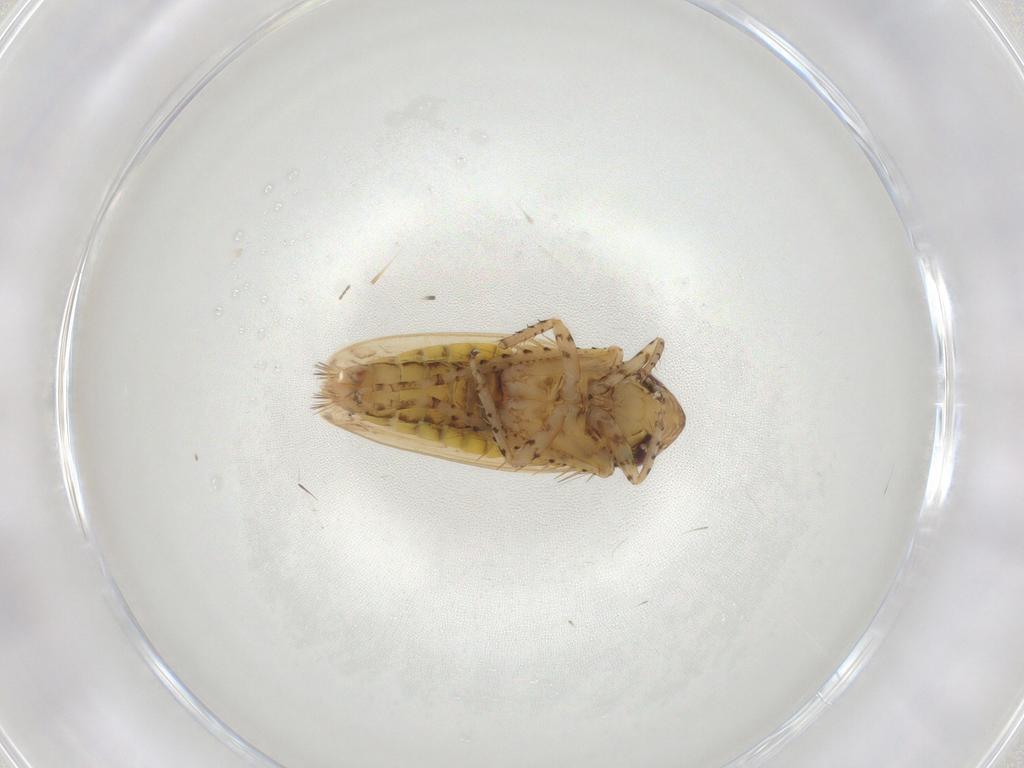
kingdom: Animalia
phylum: Arthropoda
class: Insecta
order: Hemiptera
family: Cicadellidae
